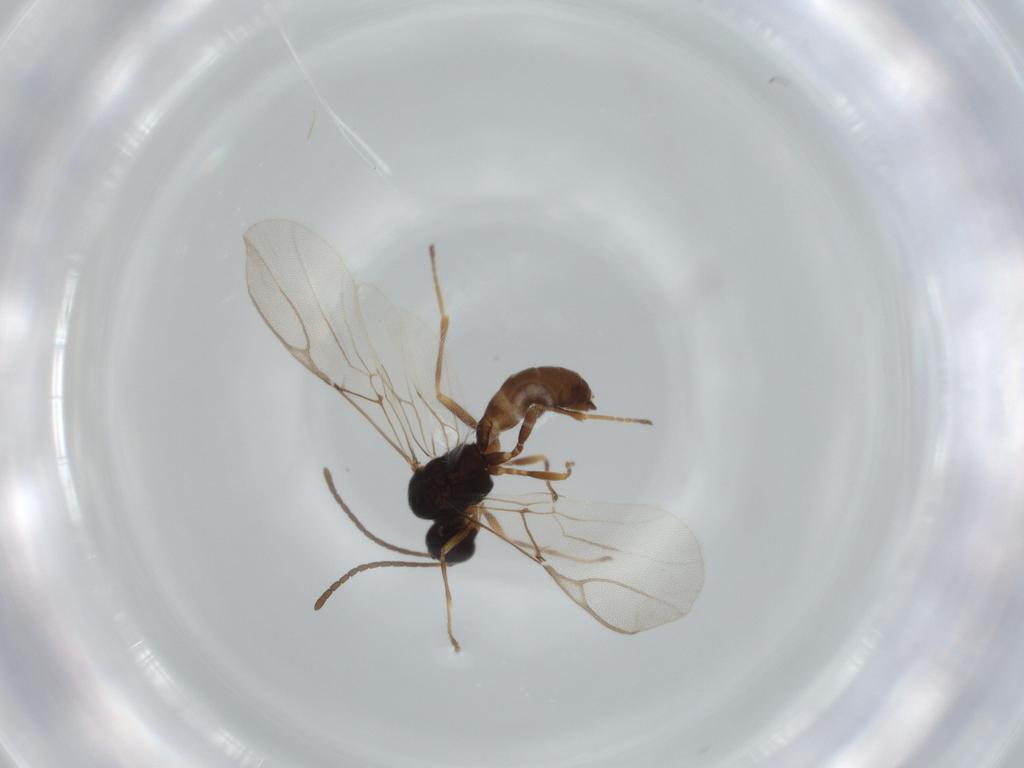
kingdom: Animalia
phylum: Arthropoda
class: Insecta
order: Hymenoptera
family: Braconidae
